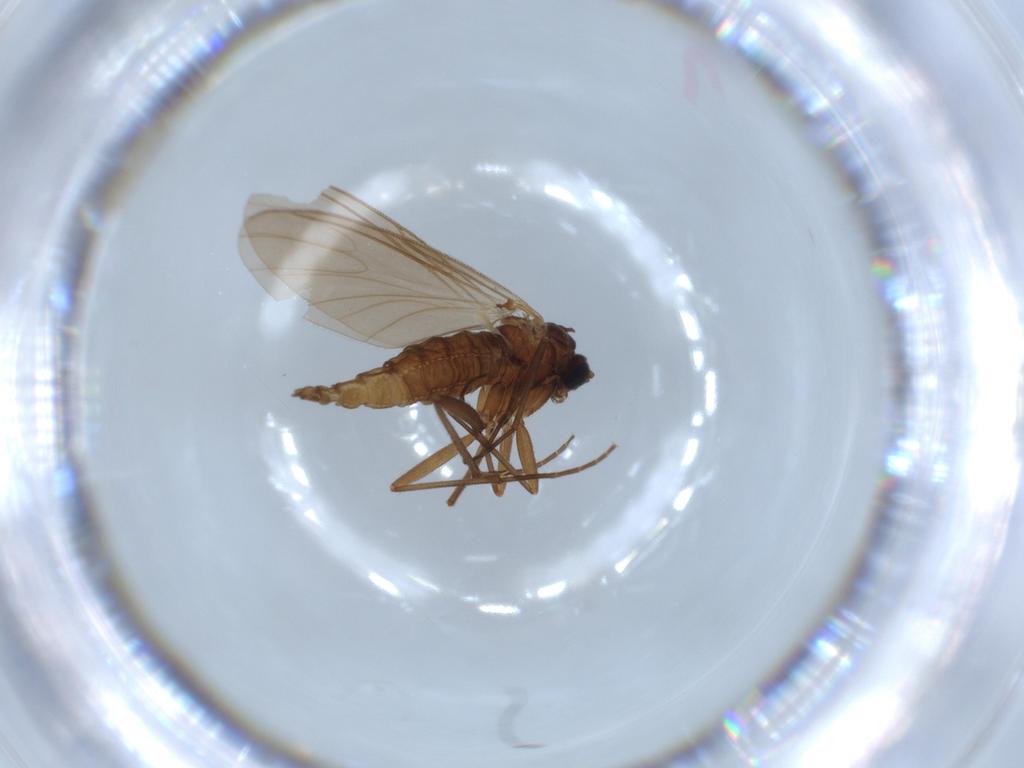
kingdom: Animalia
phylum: Arthropoda
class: Insecta
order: Diptera
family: Sciaridae
